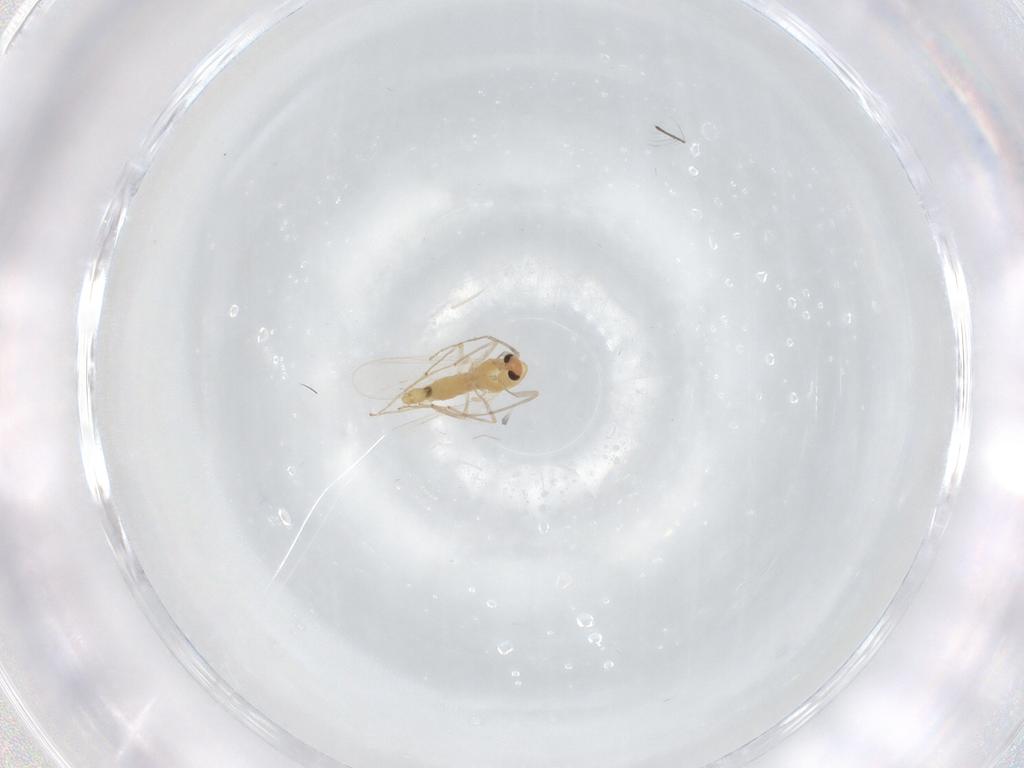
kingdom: Animalia
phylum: Arthropoda
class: Insecta
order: Diptera
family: Chironomidae
